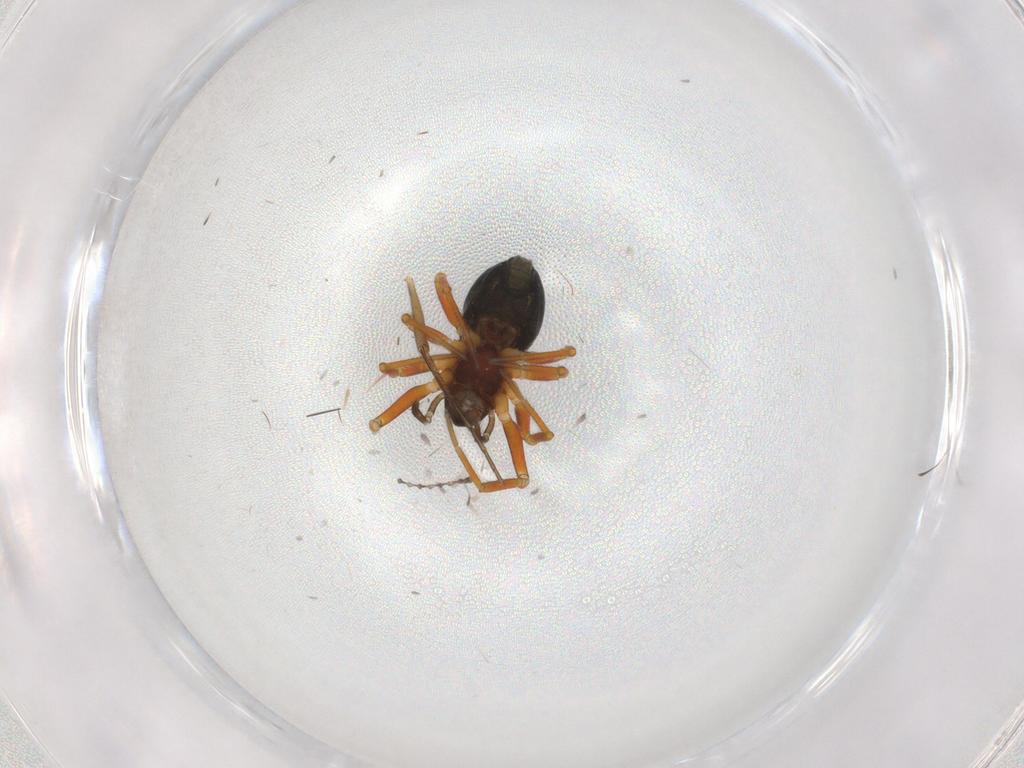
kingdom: Animalia
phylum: Arthropoda
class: Arachnida
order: Araneae
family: Linyphiidae
